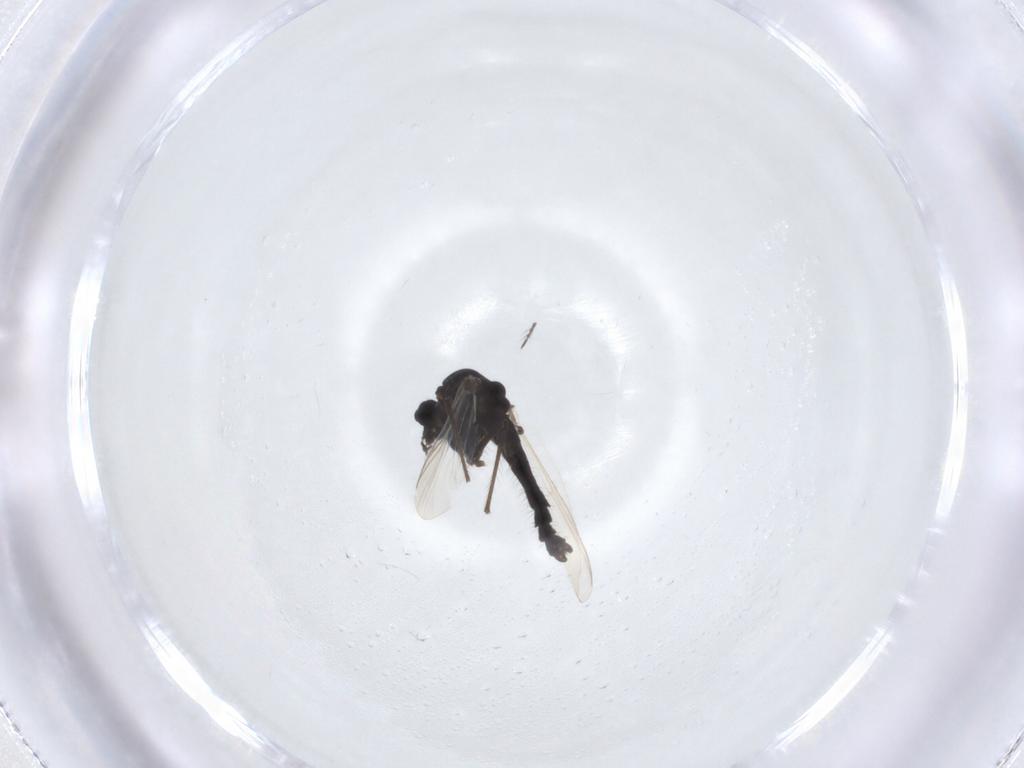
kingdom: Animalia
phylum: Arthropoda
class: Insecta
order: Diptera
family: Chironomidae
